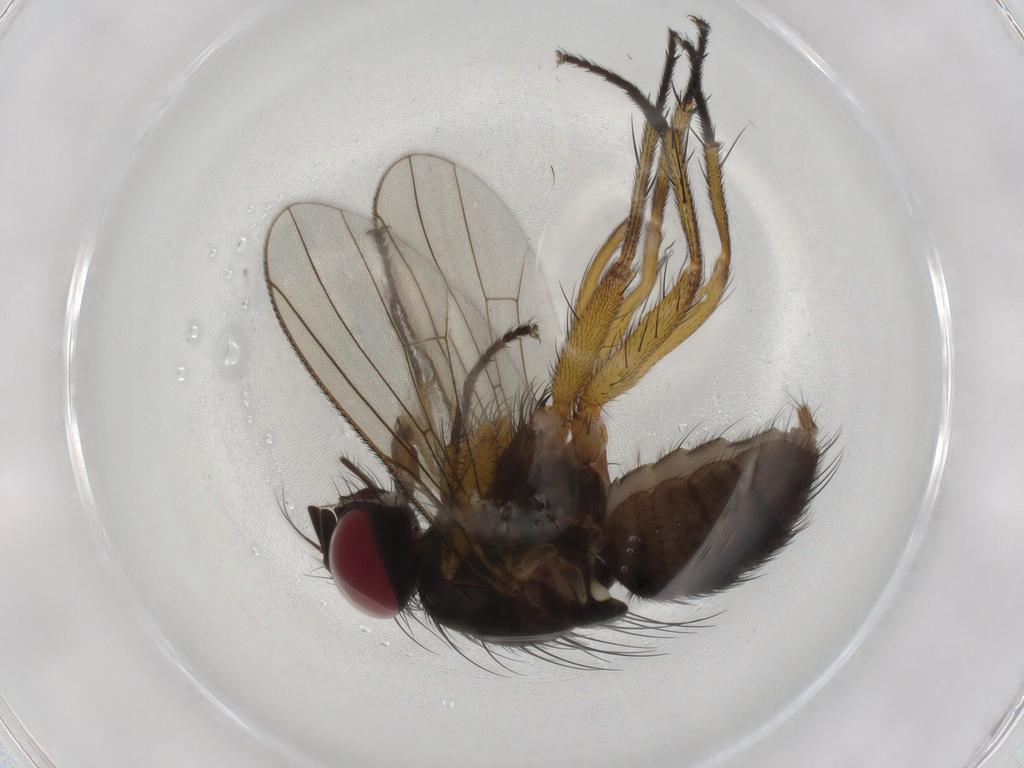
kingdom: Animalia
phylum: Arthropoda
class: Insecta
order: Diptera
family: Muscidae
